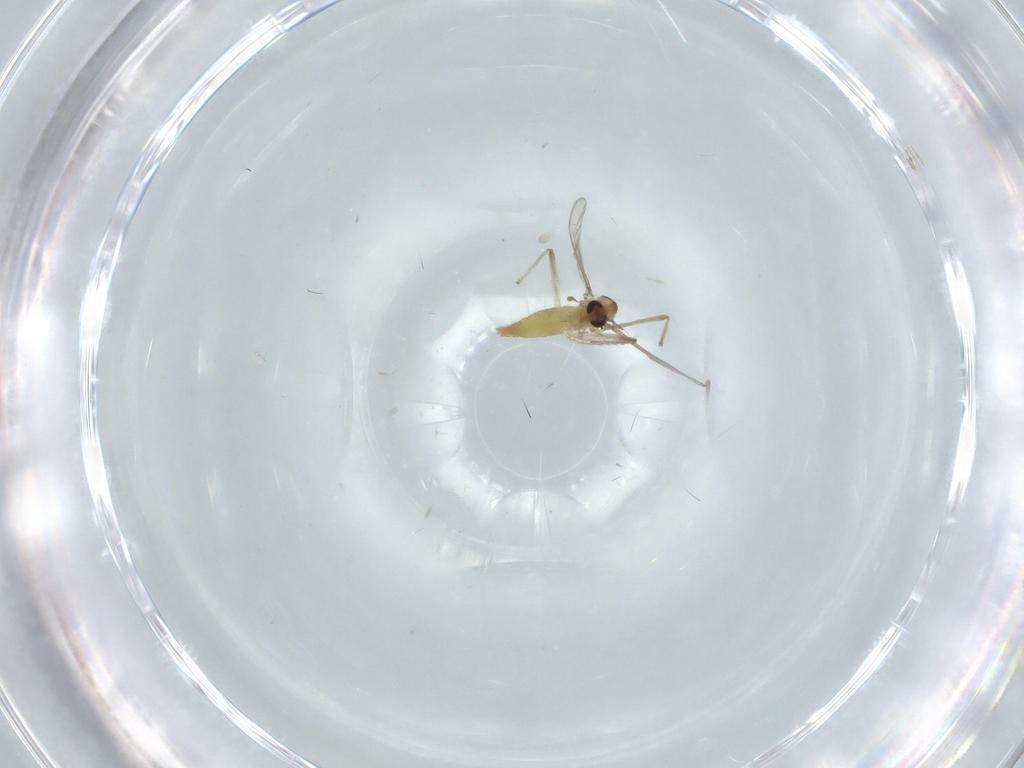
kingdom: Animalia
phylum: Arthropoda
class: Insecta
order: Diptera
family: Chironomidae
